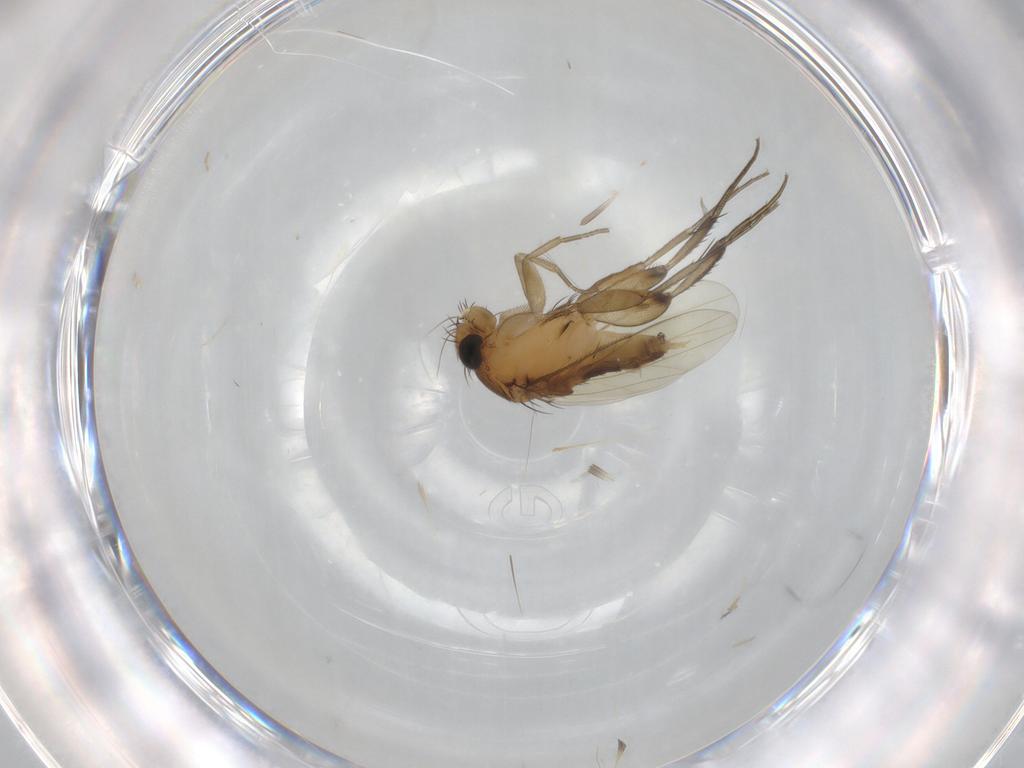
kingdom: Animalia
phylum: Arthropoda
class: Insecta
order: Diptera
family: Phoridae
